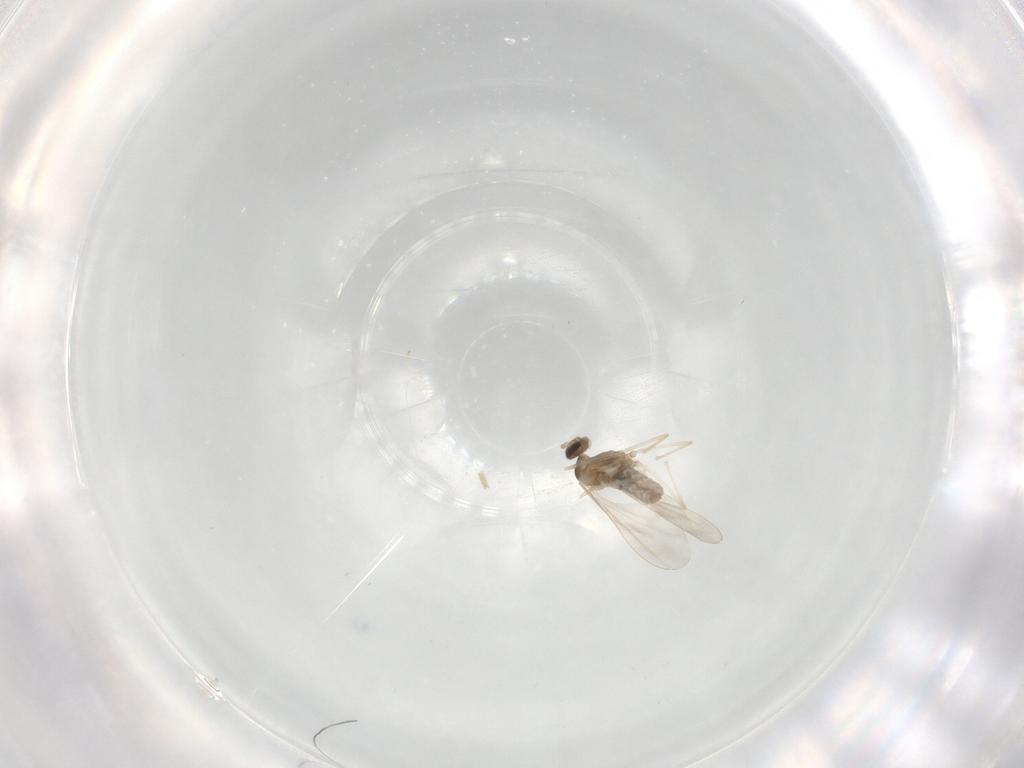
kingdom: Animalia
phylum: Arthropoda
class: Insecta
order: Diptera
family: Cecidomyiidae
